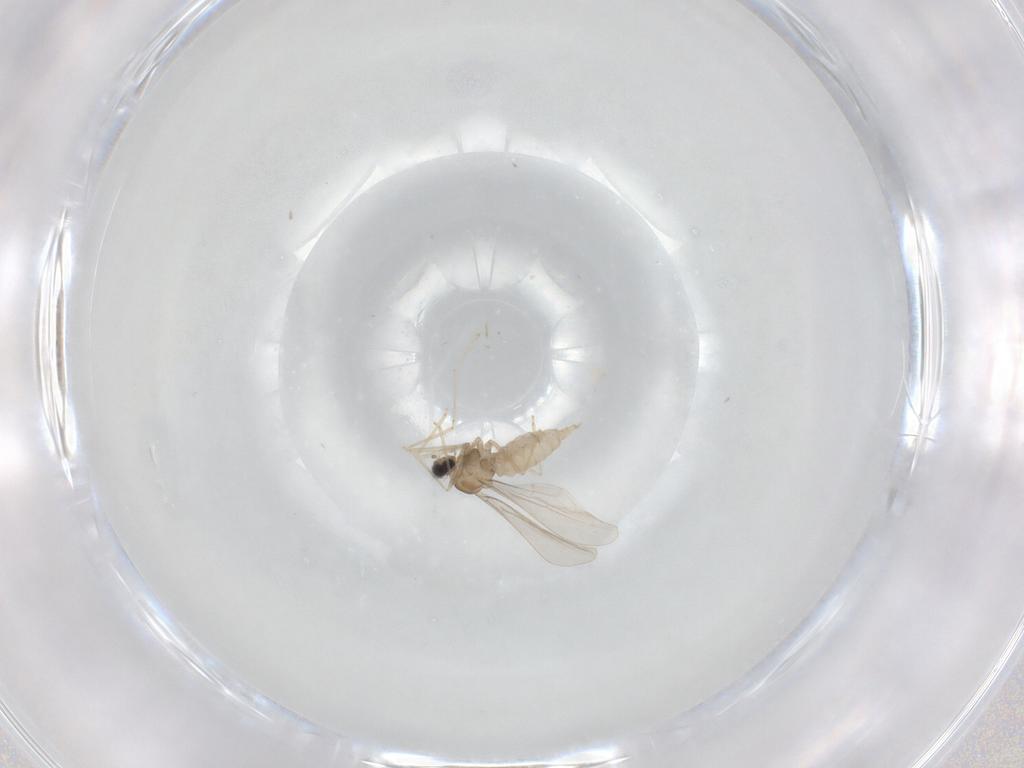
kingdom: Animalia
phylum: Arthropoda
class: Insecta
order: Diptera
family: Cecidomyiidae
